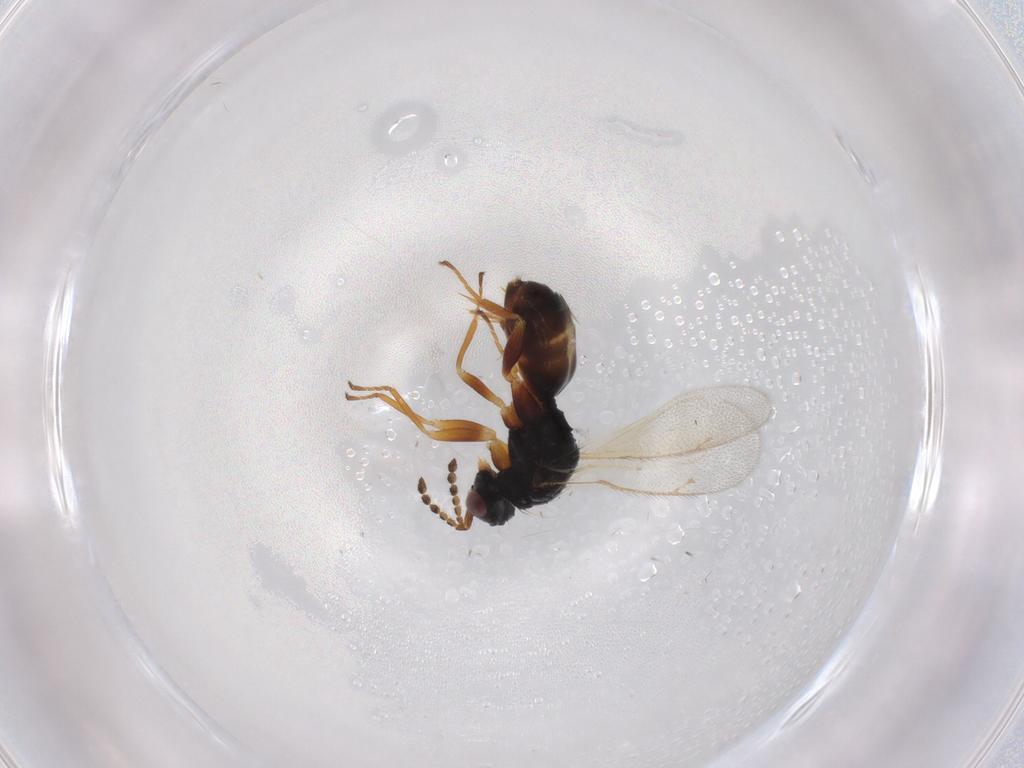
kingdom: Animalia
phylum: Arthropoda
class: Insecta
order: Hymenoptera
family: Eulophidae
